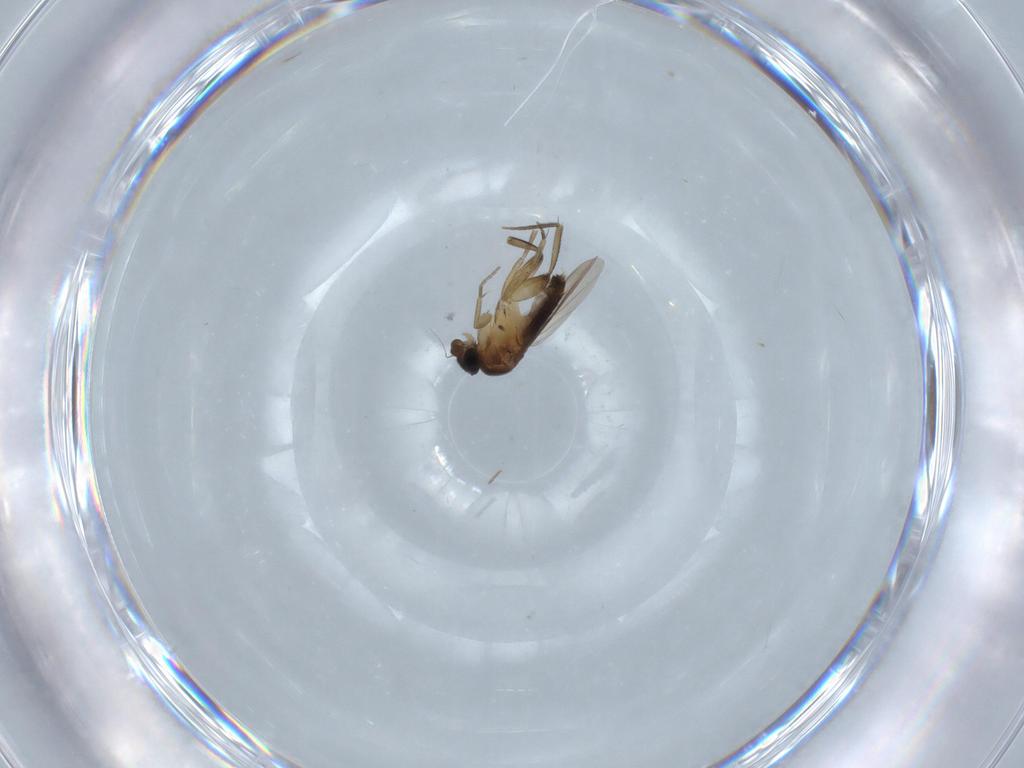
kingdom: Animalia
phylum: Arthropoda
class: Insecta
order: Diptera
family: Phoridae
